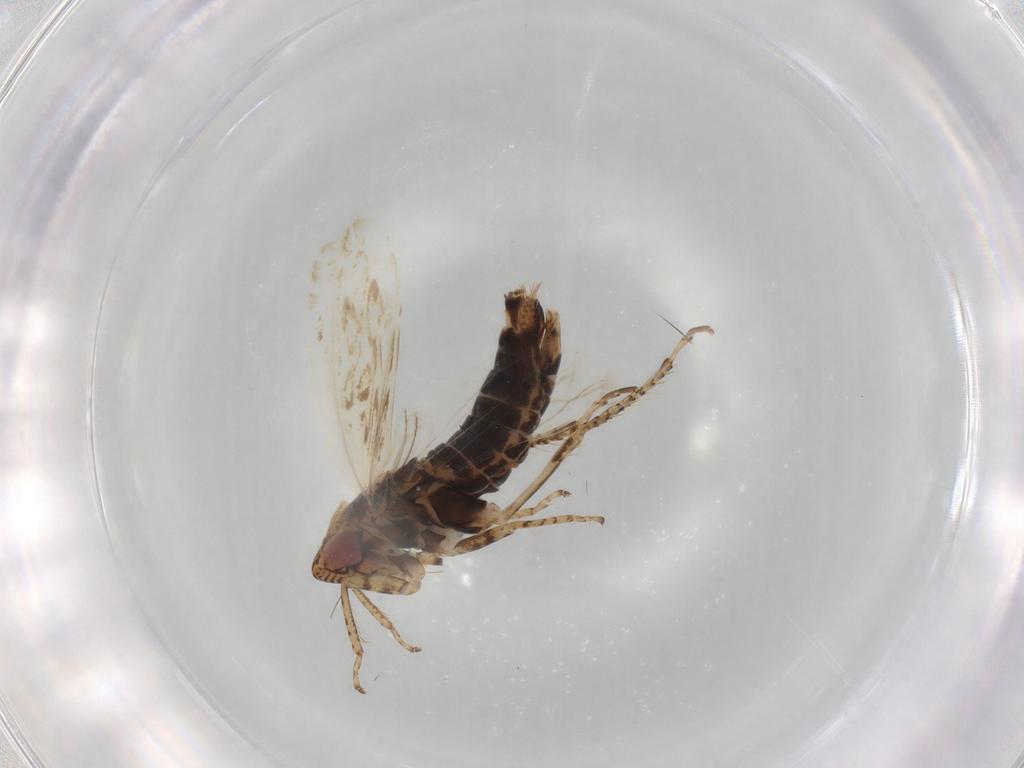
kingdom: Animalia
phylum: Arthropoda
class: Insecta
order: Hemiptera
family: Cicadellidae
